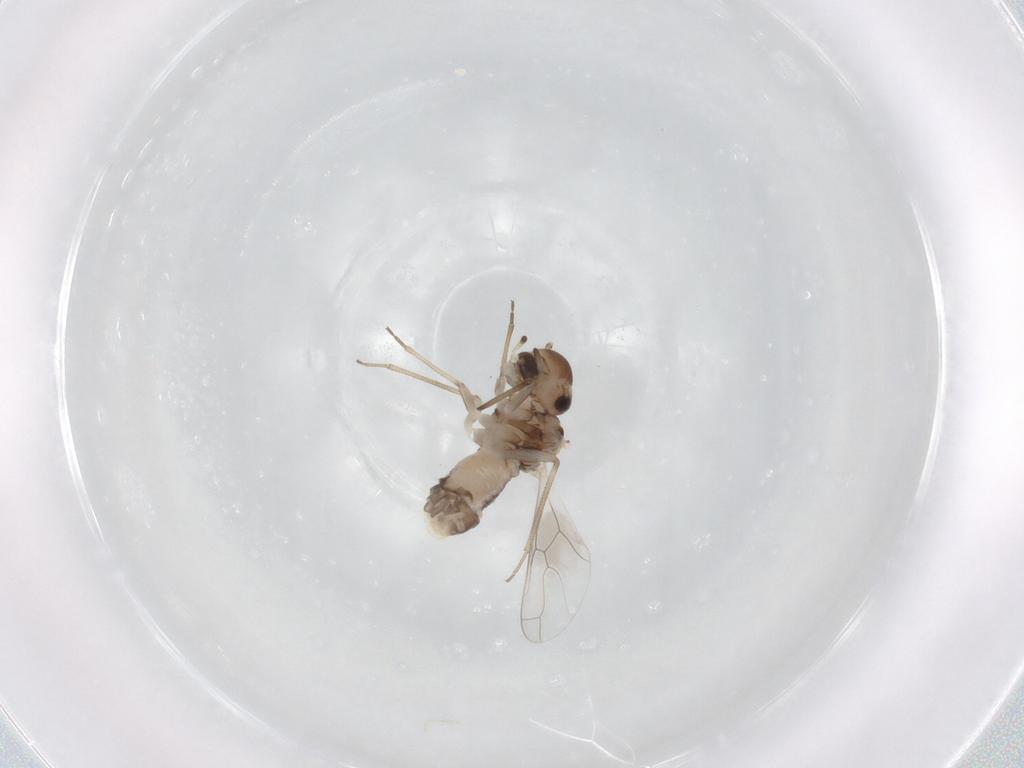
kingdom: Animalia
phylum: Arthropoda
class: Insecta
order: Psocodea
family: Peripsocidae
